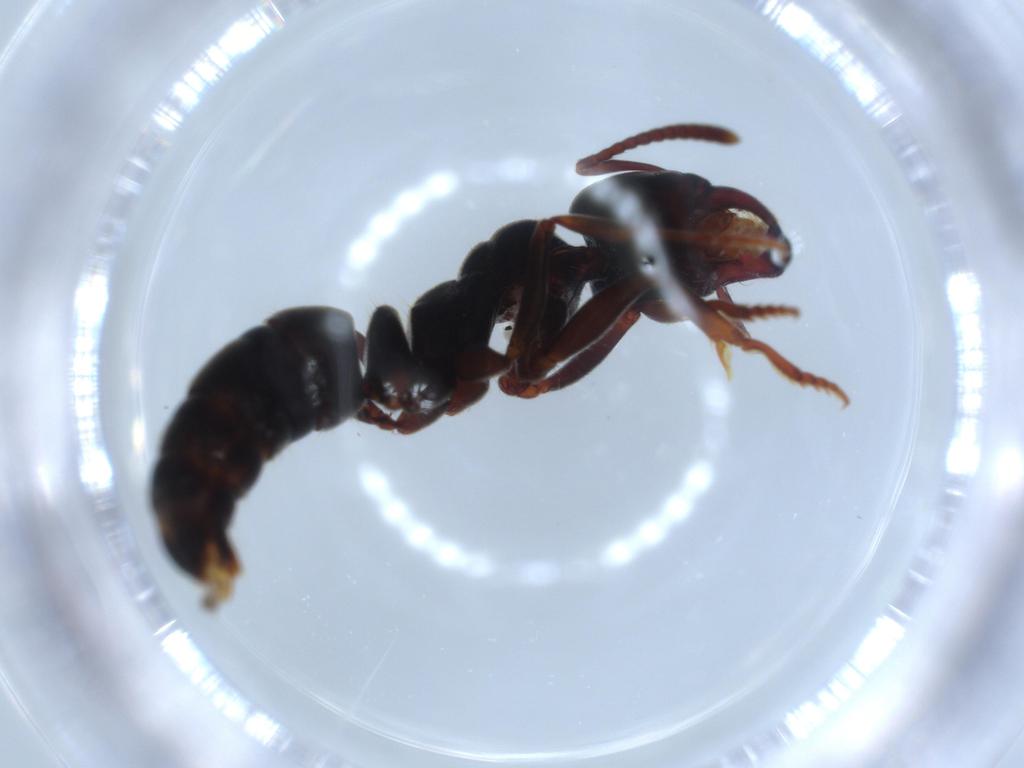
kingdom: Animalia
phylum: Arthropoda
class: Insecta
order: Hymenoptera
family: Formicidae
